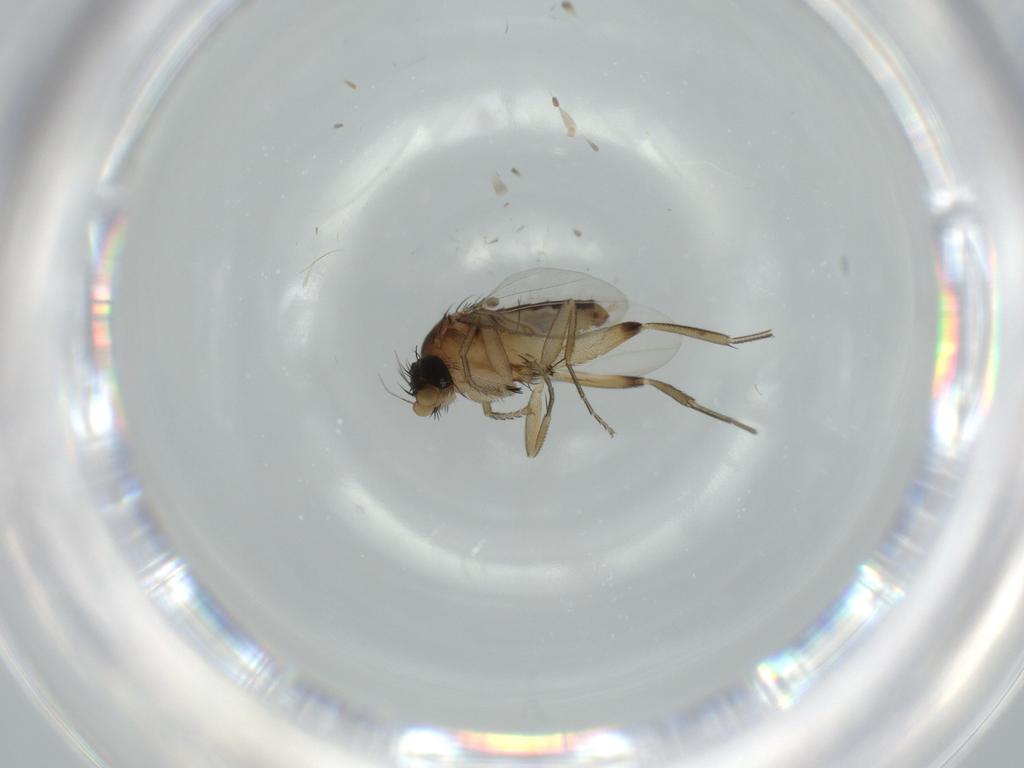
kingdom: Animalia
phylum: Arthropoda
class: Insecta
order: Diptera
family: Sciaridae
